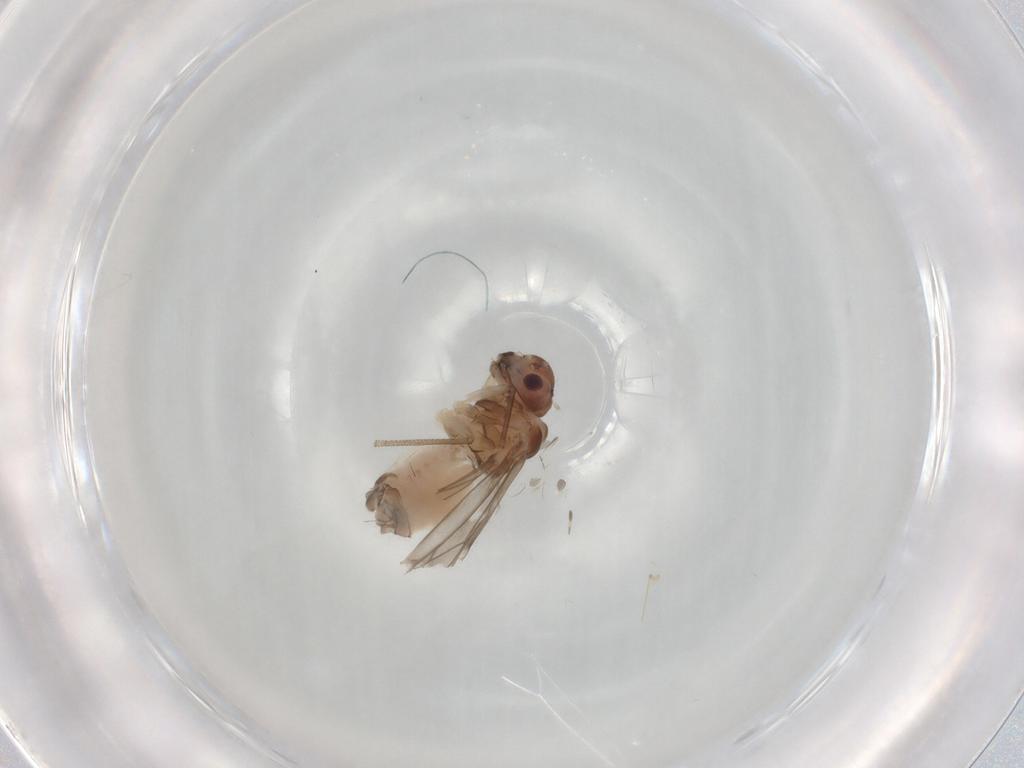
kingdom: Animalia
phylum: Arthropoda
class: Insecta
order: Psocodea
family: Peripsocidae
